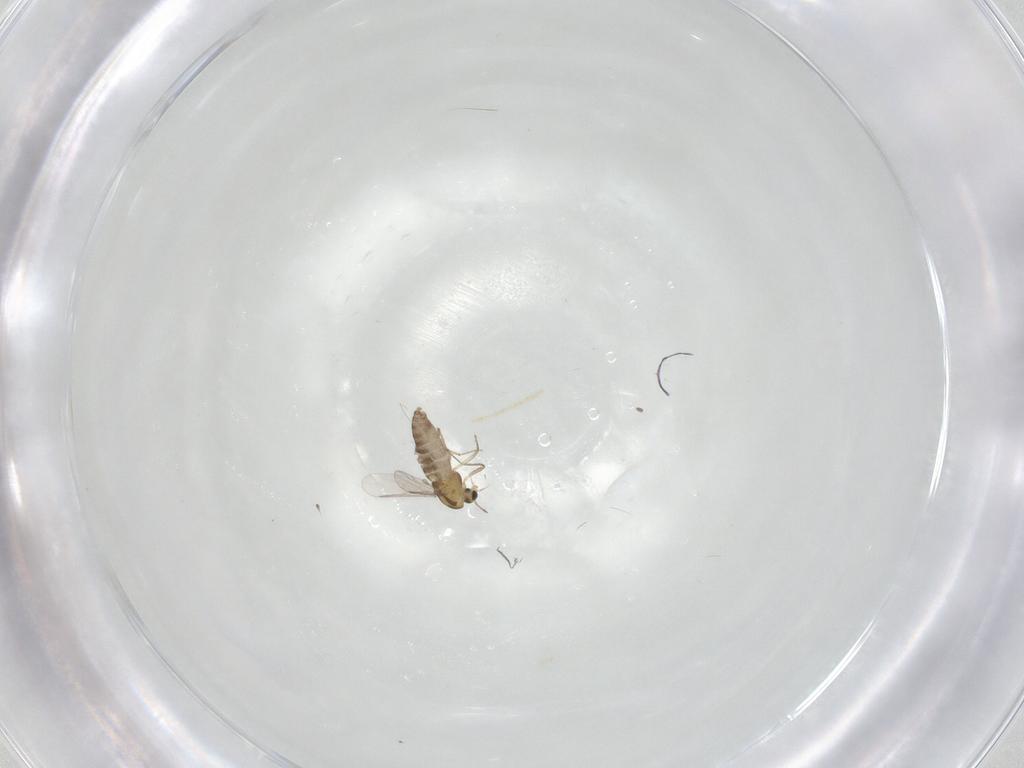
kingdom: Animalia
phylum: Arthropoda
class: Insecta
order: Diptera
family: Chironomidae
